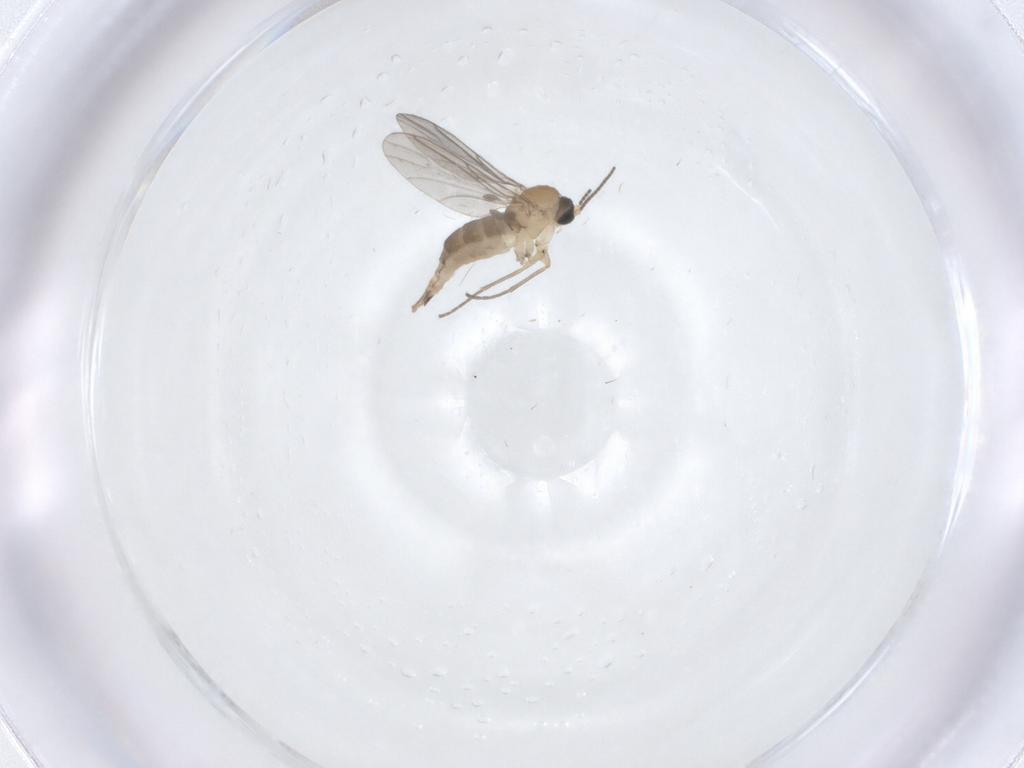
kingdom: Animalia
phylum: Arthropoda
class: Insecta
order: Diptera
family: Sciaridae
